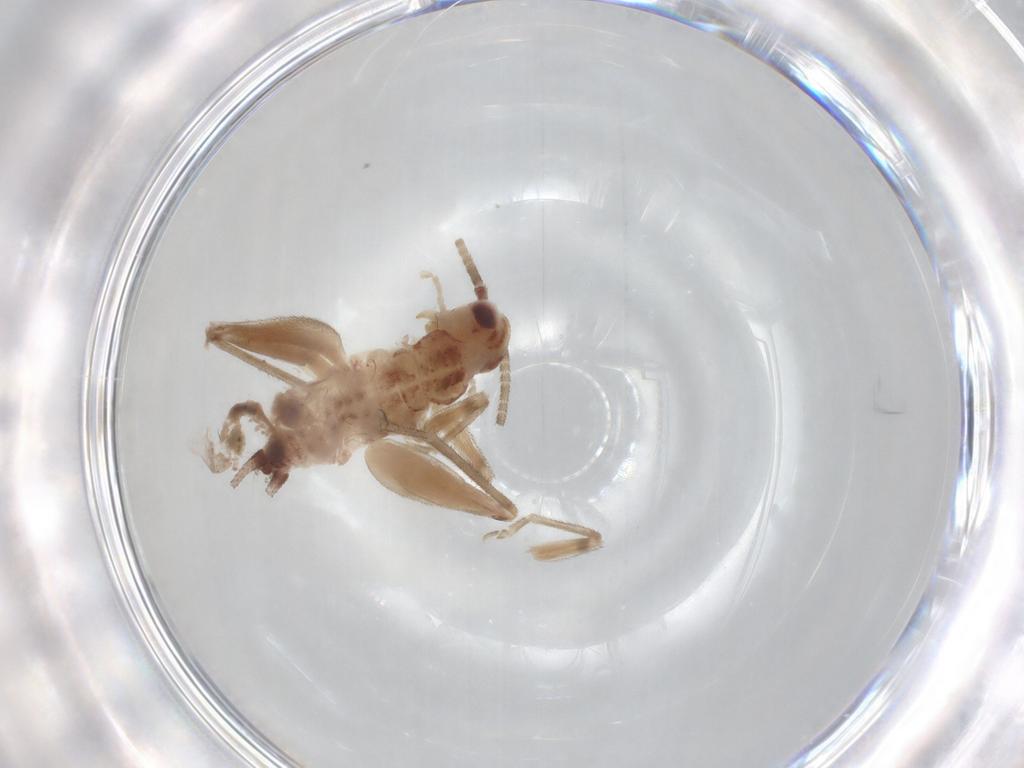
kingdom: Animalia
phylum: Arthropoda
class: Insecta
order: Orthoptera
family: Trigonidiidae
